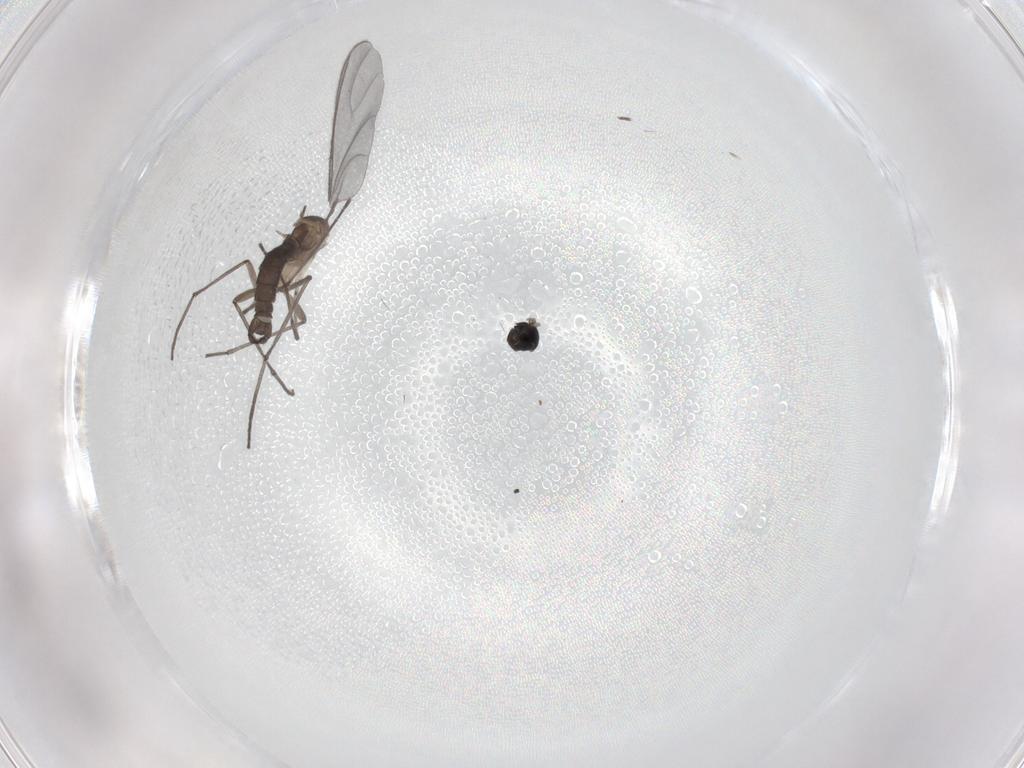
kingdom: Animalia
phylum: Arthropoda
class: Insecta
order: Diptera
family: Sciaridae
